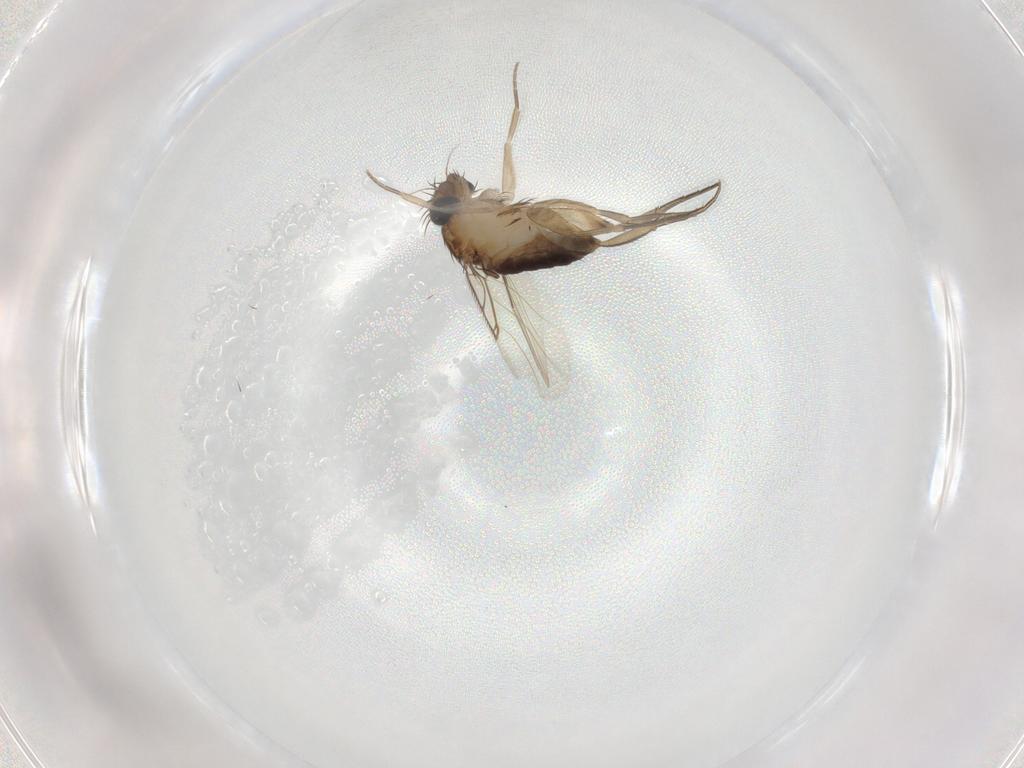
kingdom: Animalia
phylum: Arthropoda
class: Insecta
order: Diptera
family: Phoridae
